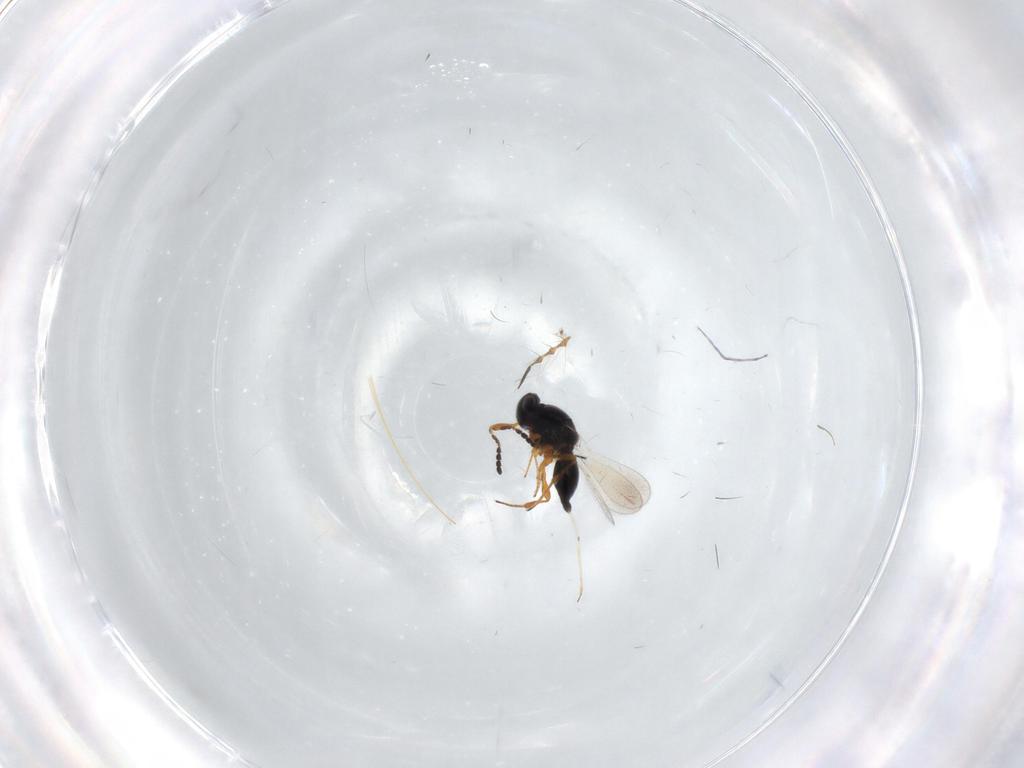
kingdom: Animalia
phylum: Arthropoda
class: Insecta
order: Hymenoptera
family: Platygastridae
